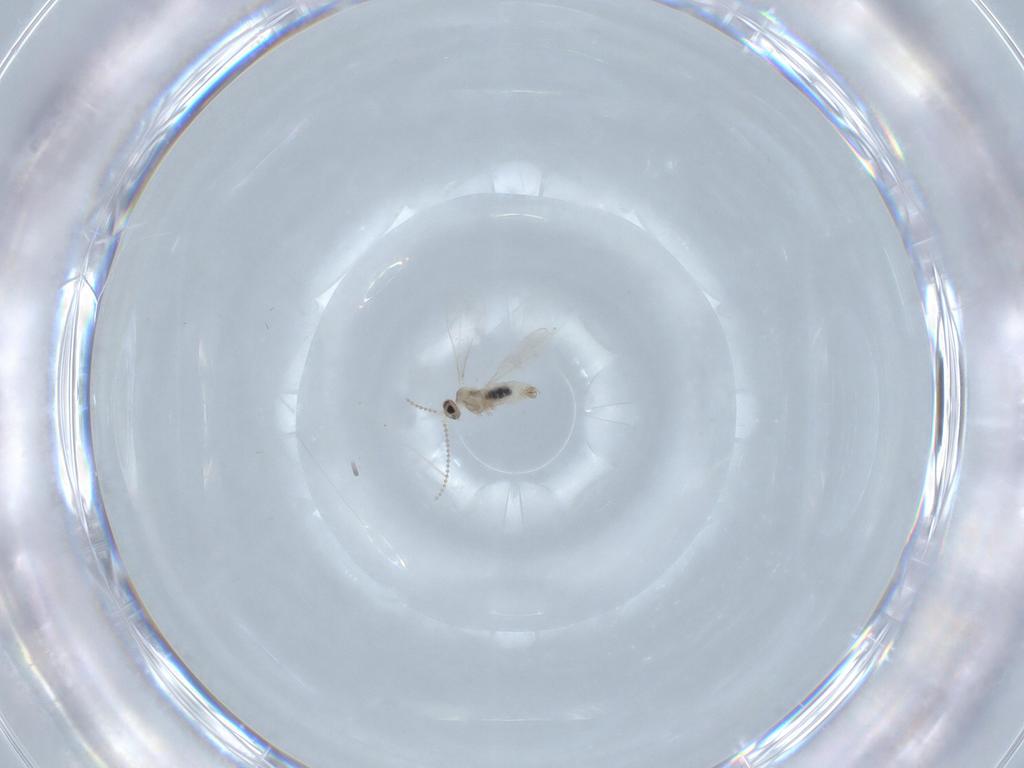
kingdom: Animalia
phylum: Arthropoda
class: Insecta
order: Diptera
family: Cecidomyiidae
